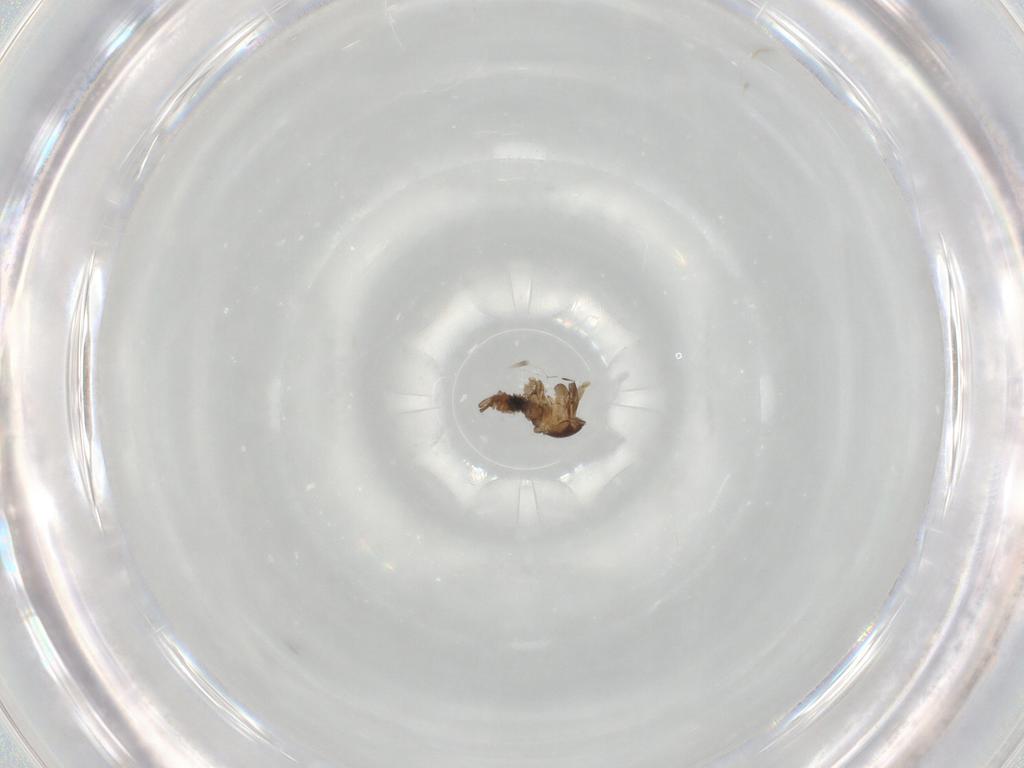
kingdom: Animalia
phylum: Arthropoda
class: Insecta
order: Diptera
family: Cecidomyiidae
